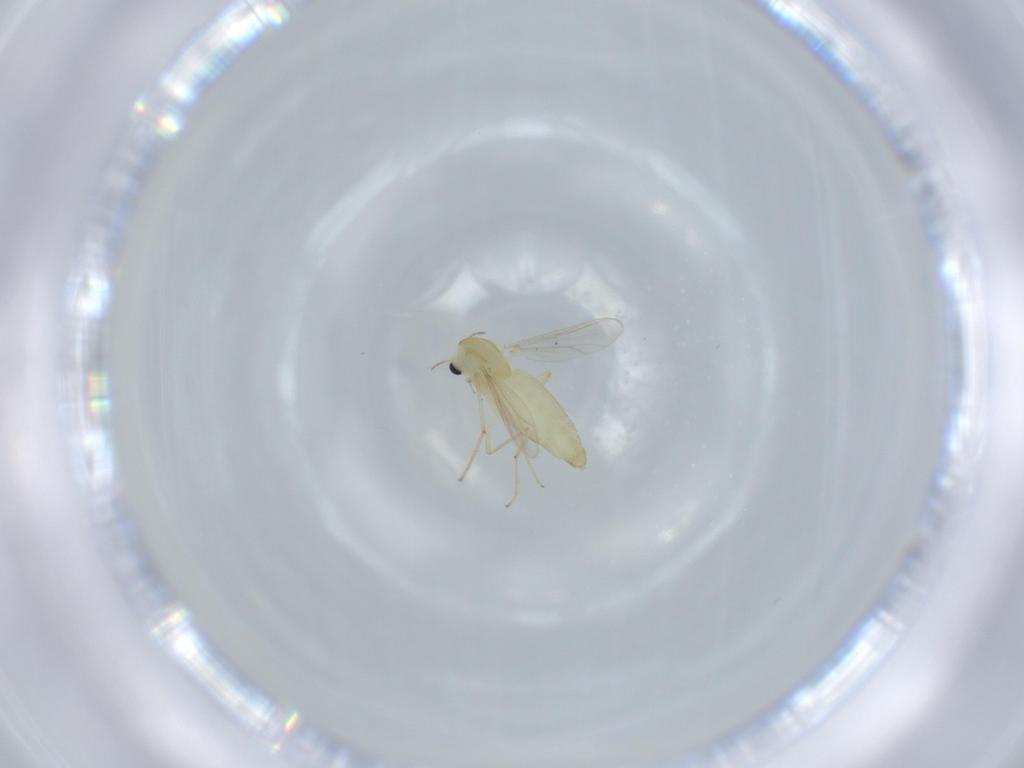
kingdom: Animalia
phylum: Arthropoda
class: Insecta
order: Diptera
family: Chironomidae
